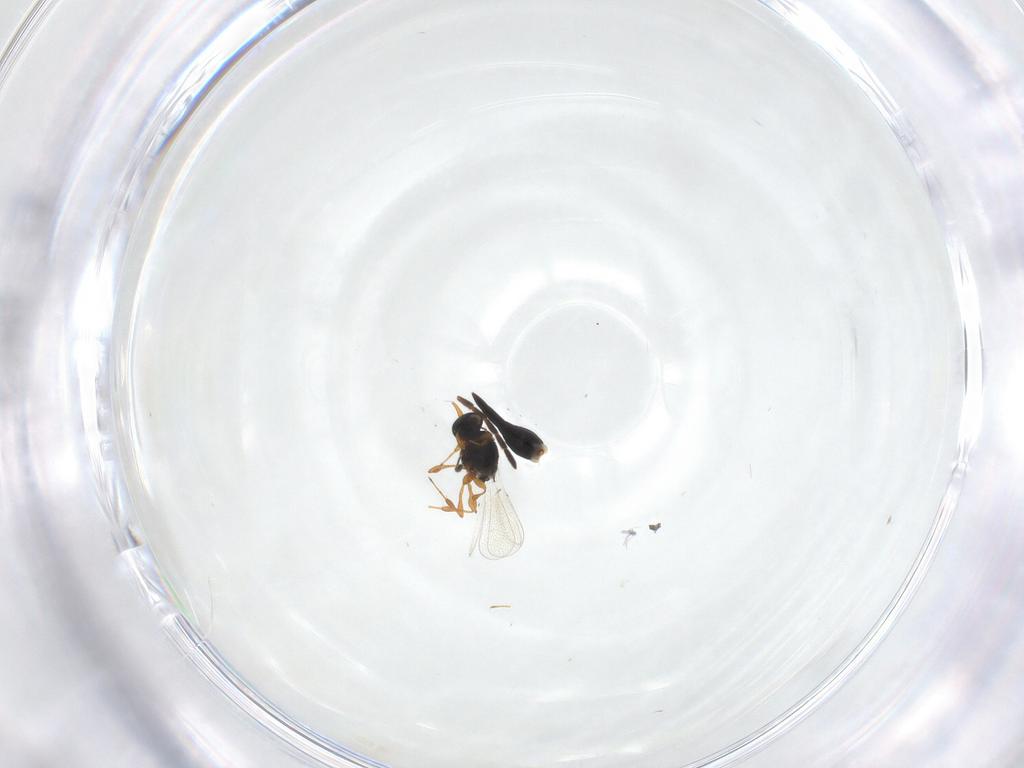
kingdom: Animalia
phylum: Arthropoda
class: Insecta
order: Hymenoptera
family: Platygastridae
